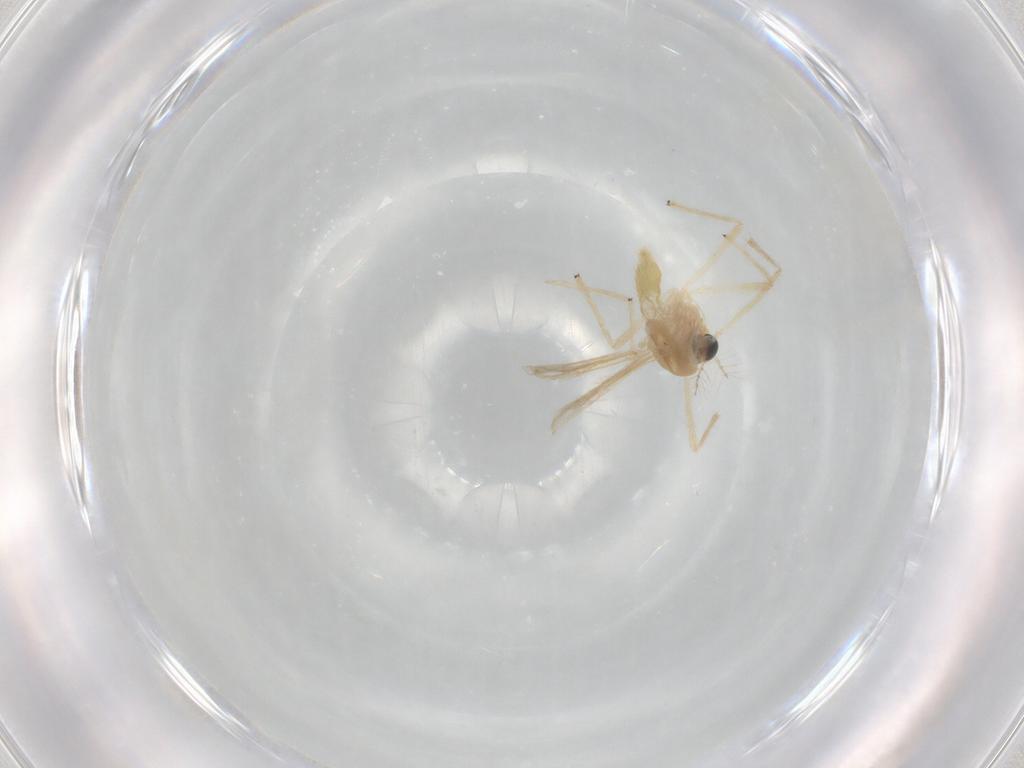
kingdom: Animalia
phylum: Arthropoda
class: Insecta
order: Diptera
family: Chironomidae
